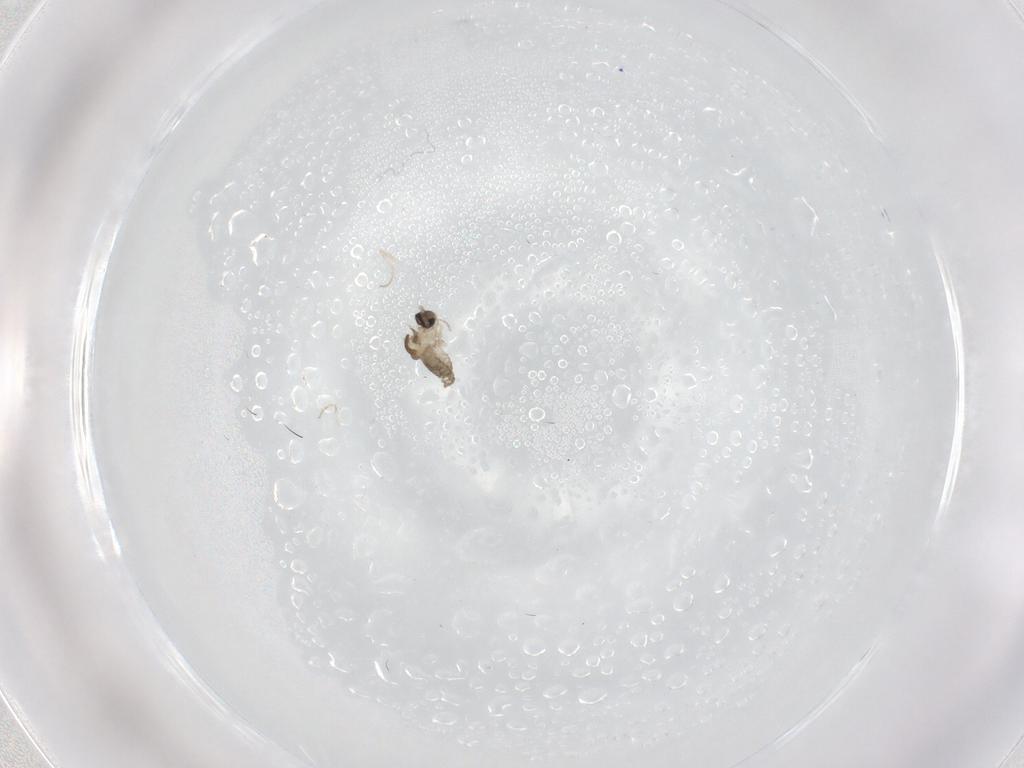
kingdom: Animalia
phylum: Arthropoda
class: Insecta
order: Diptera
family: Cecidomyiidae
